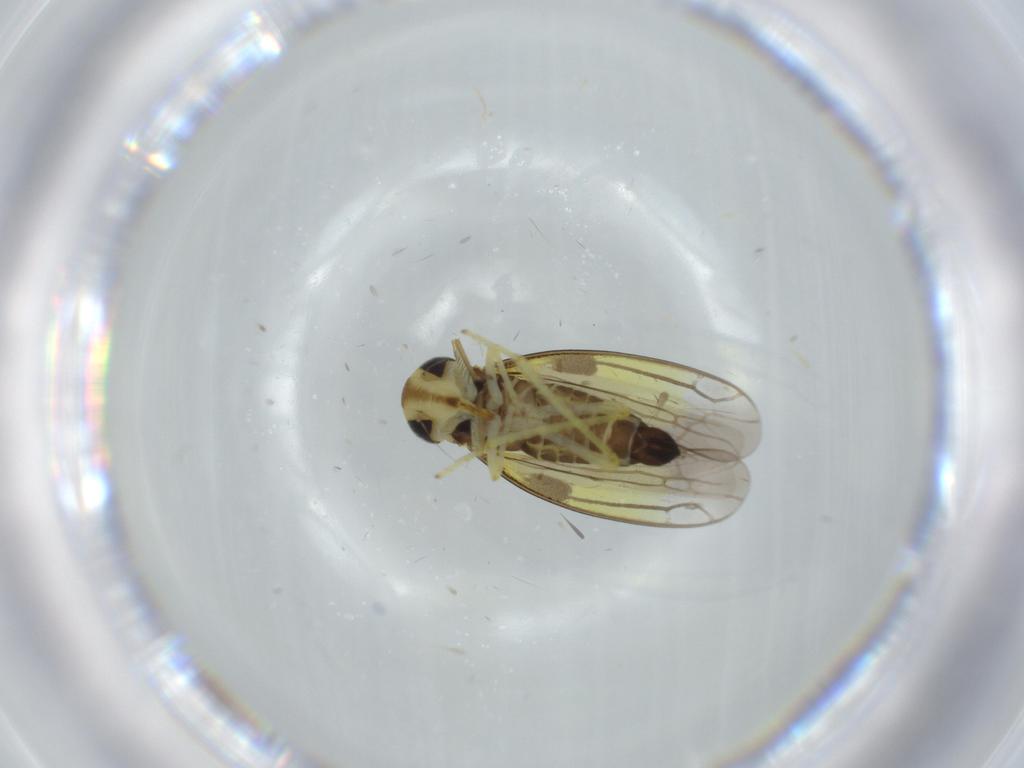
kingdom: Animalia
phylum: Arthropoda
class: Insecta
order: Hemiptera
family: Cicadellidae
